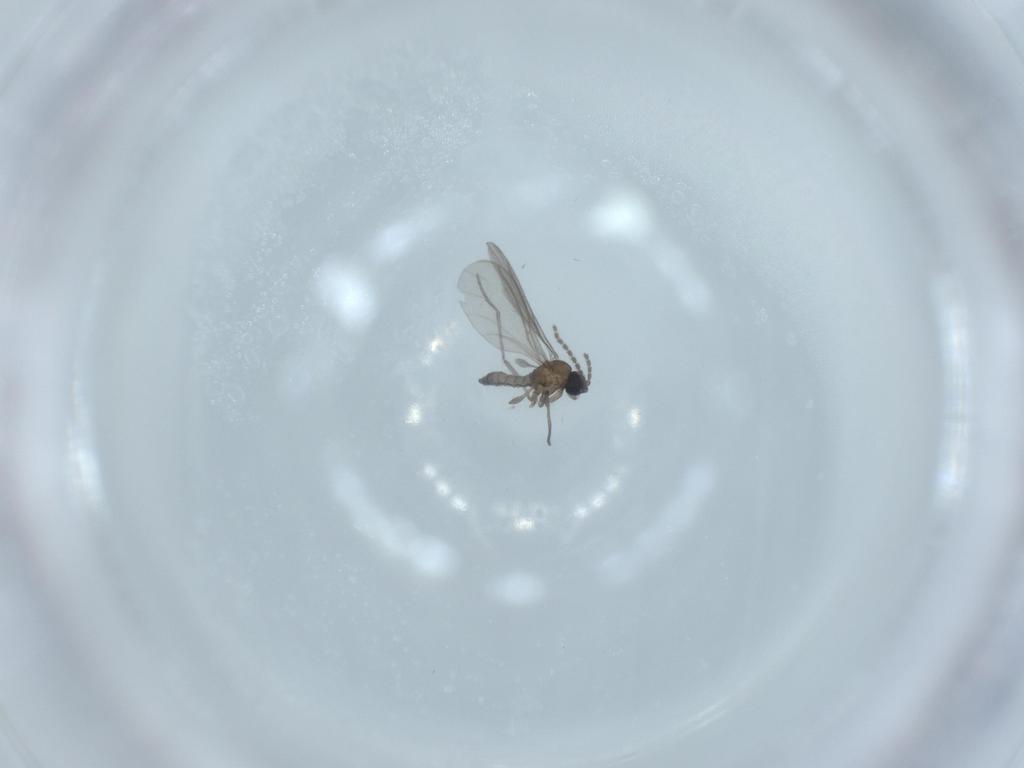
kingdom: Animalia
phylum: Arthropoda
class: Insecta
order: Diptera
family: Sciaridae
